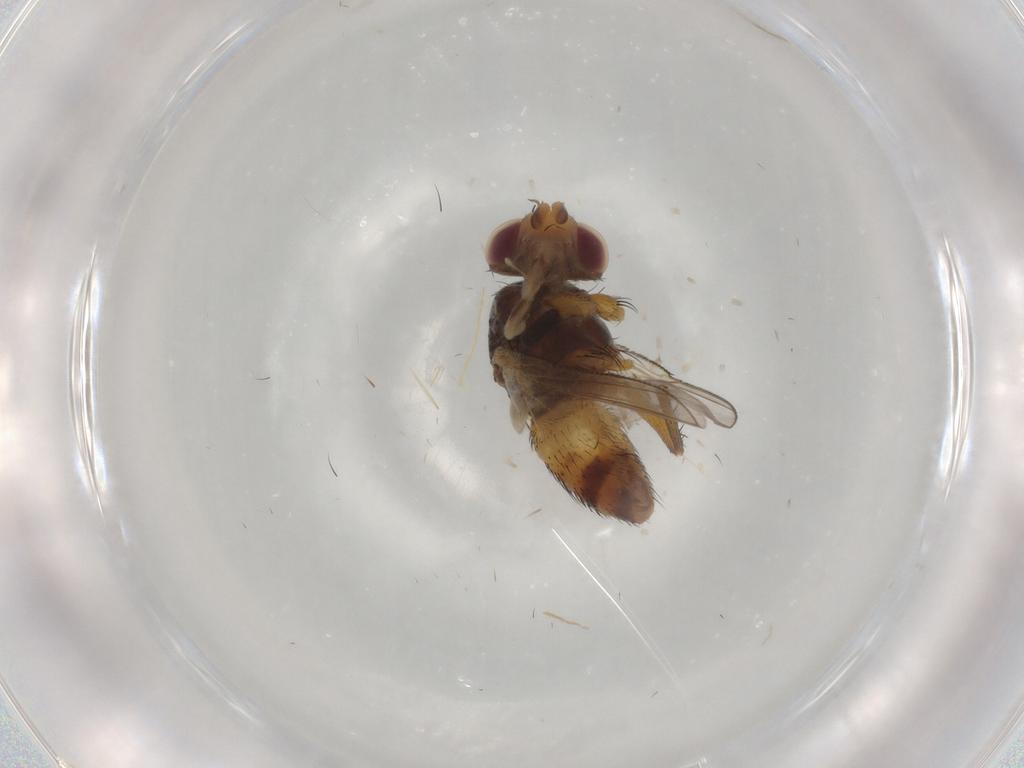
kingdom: Animalia
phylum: Arthropoda
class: Insecta
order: Diptera
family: Muscidae
